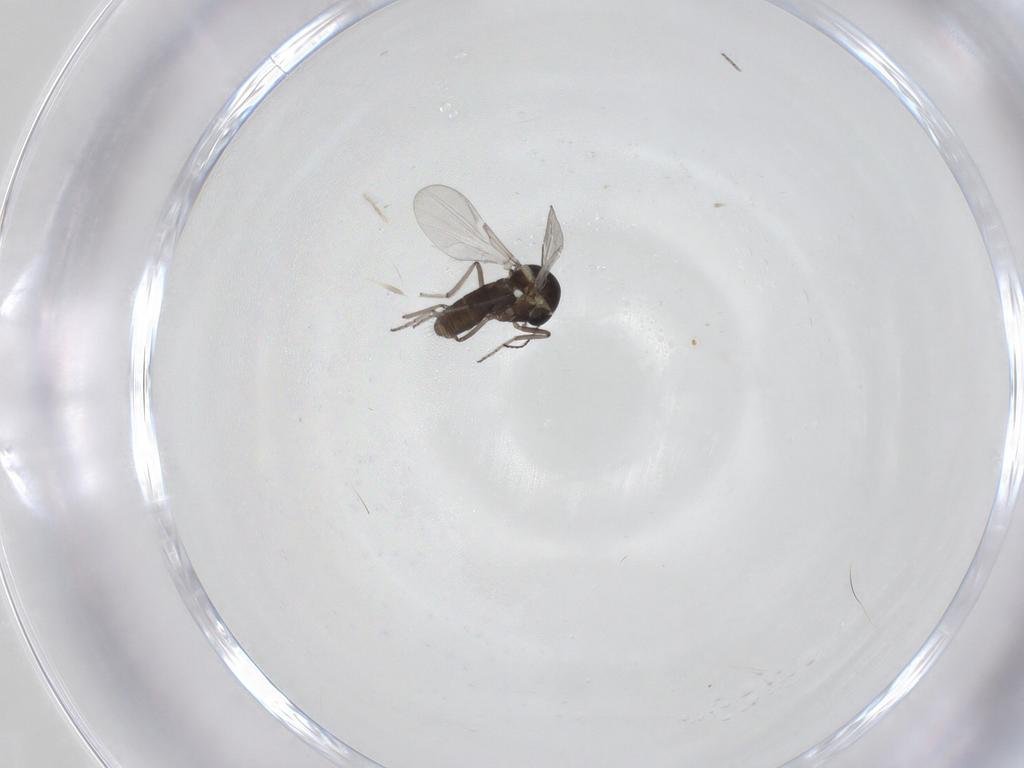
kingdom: Animalia
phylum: Arthropoda
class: Insecta
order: Diptera
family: Ceratopogonidae
